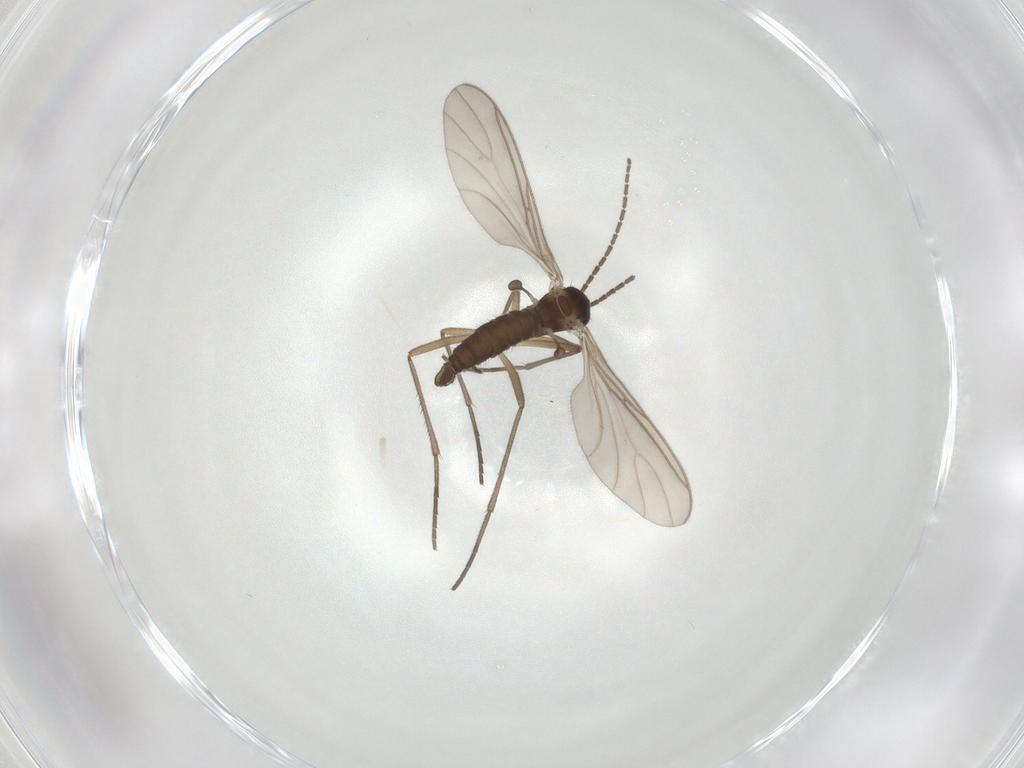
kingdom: Animalia
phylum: Arthropoda
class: Insecta
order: Diptera
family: Sciaridae
